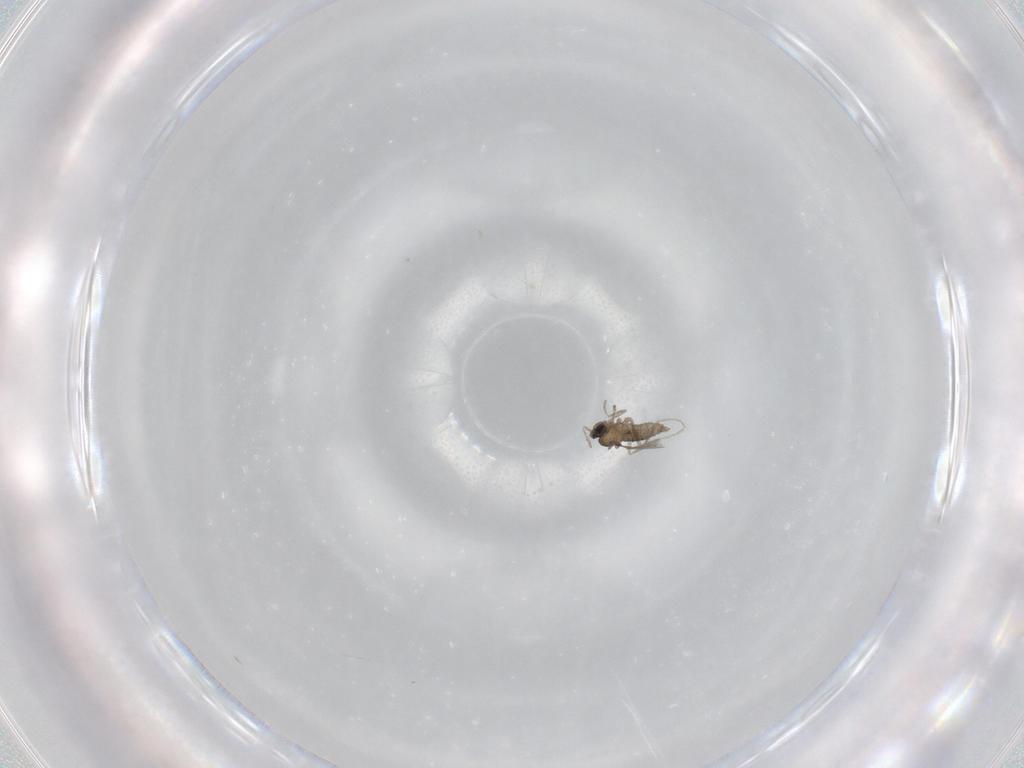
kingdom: Animalia
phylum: Arthropoda
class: Insecta
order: Diptera
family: Cecidomyiidae
